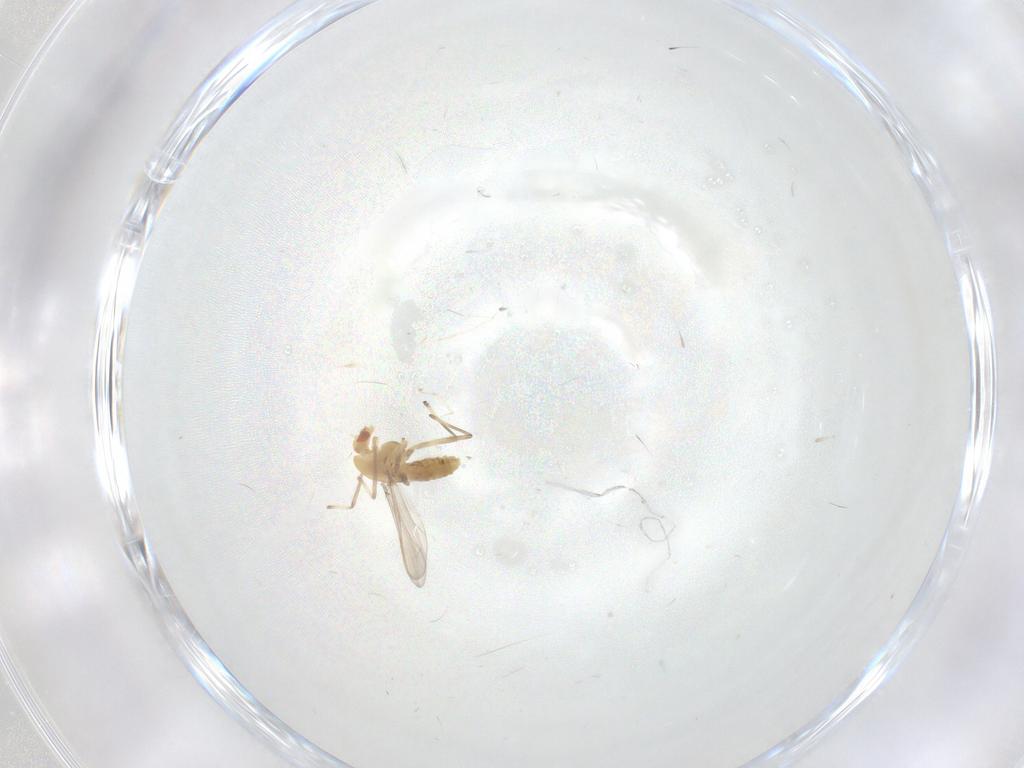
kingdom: Animalia
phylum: Arthropoda
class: Insecta
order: Diptera
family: Chironomidae
